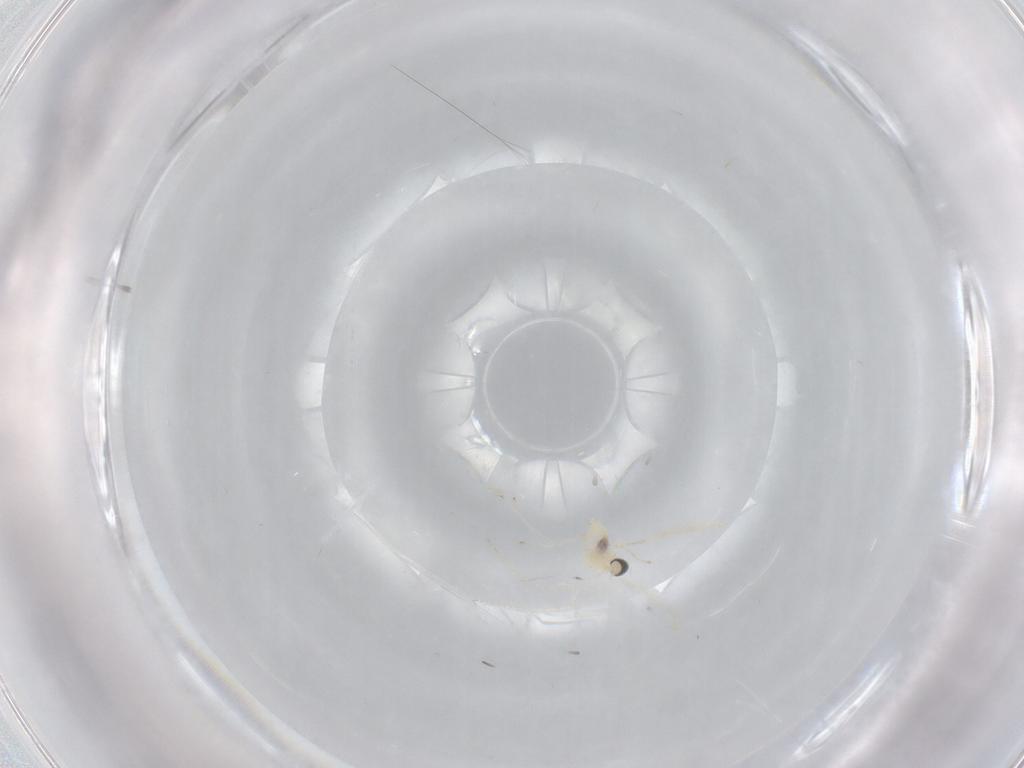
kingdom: Animalia
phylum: Arthropoda
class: Insecta
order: Diptera
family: Cecidomyiidae
